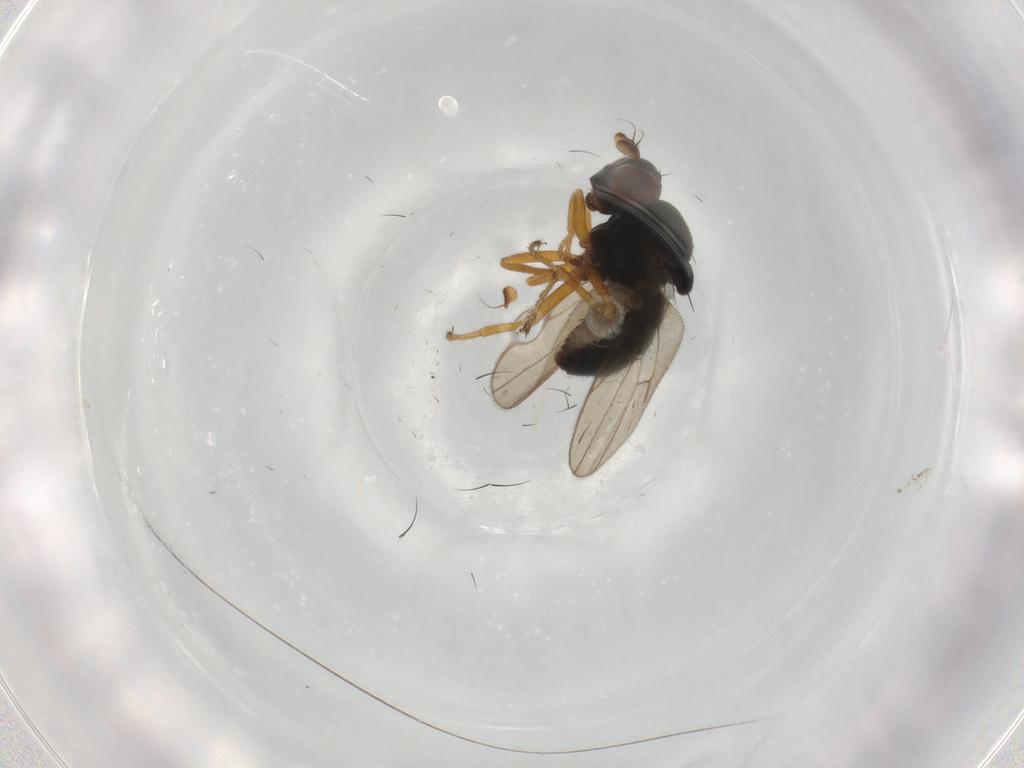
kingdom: Animalia
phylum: Arthropoda
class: Insecta
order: Diptera
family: Ephydridae
